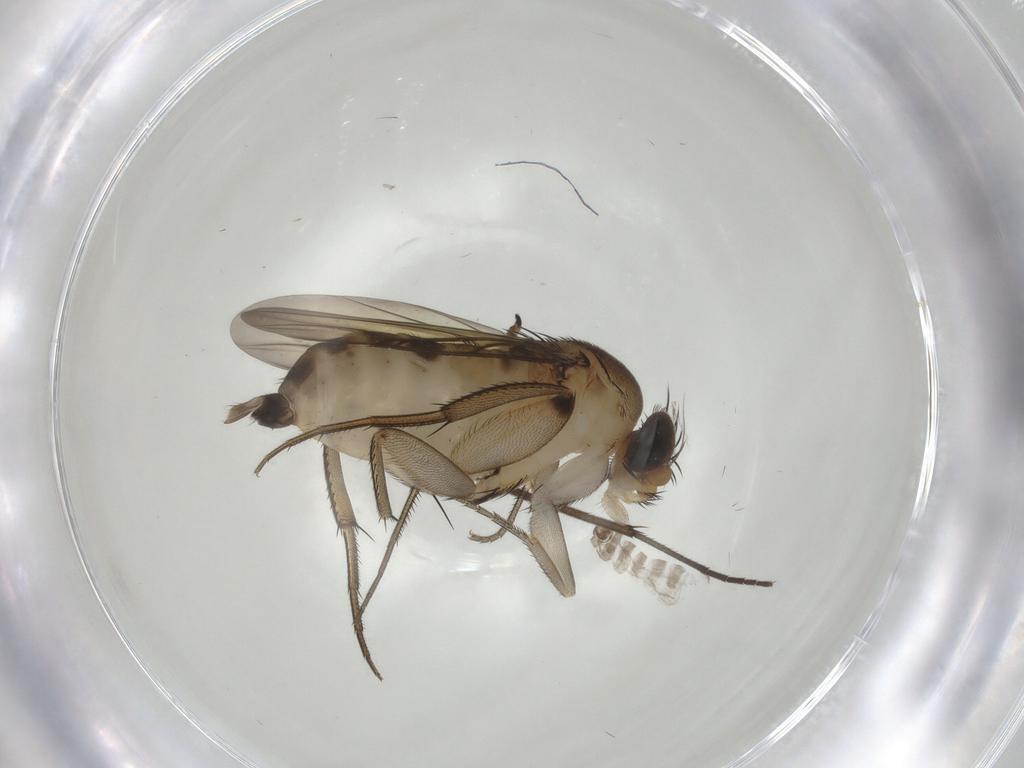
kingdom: Animalia
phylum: Arthropoda
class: Insecta
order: Diptera
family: Phoridae
